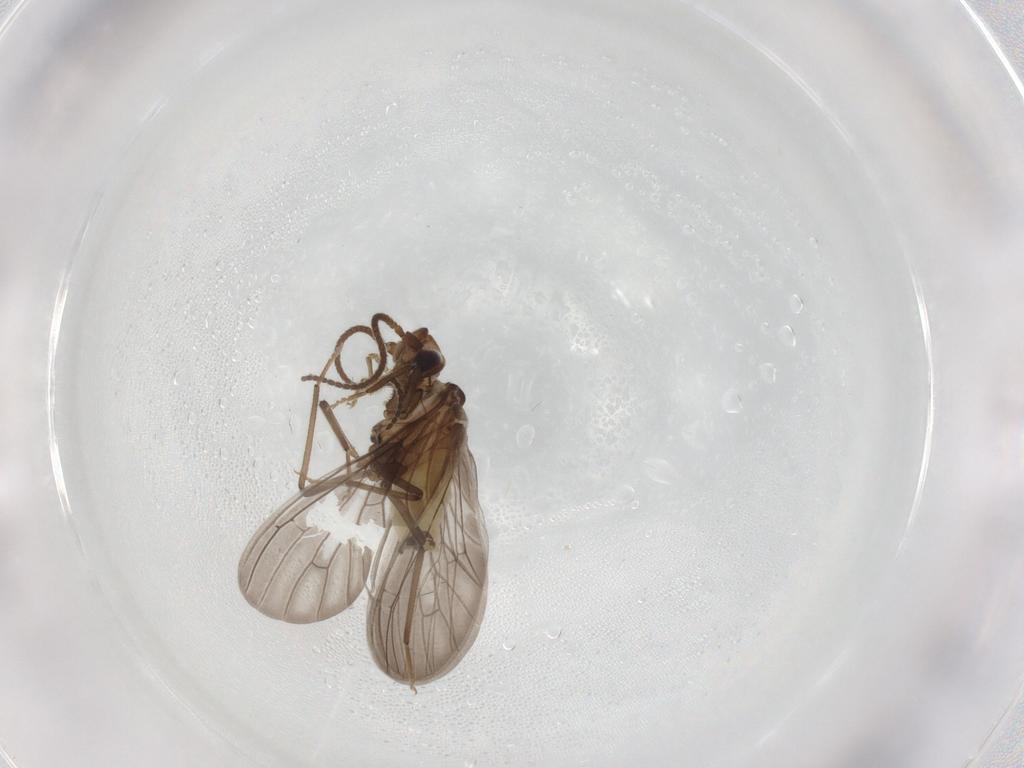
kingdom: Animalia
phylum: Arthropoda
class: Insecta
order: Neuroptera
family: Coniopterygidae
